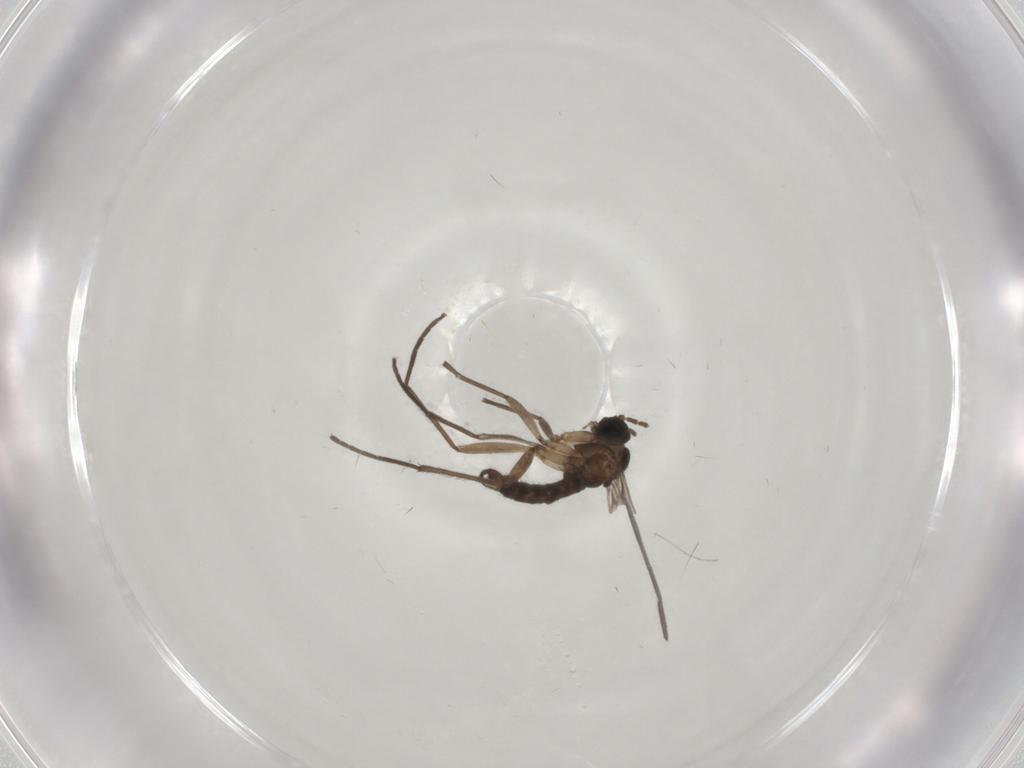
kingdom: Animalia
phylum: Arthropoda
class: Insecta
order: Diptera
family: Sciaridae
